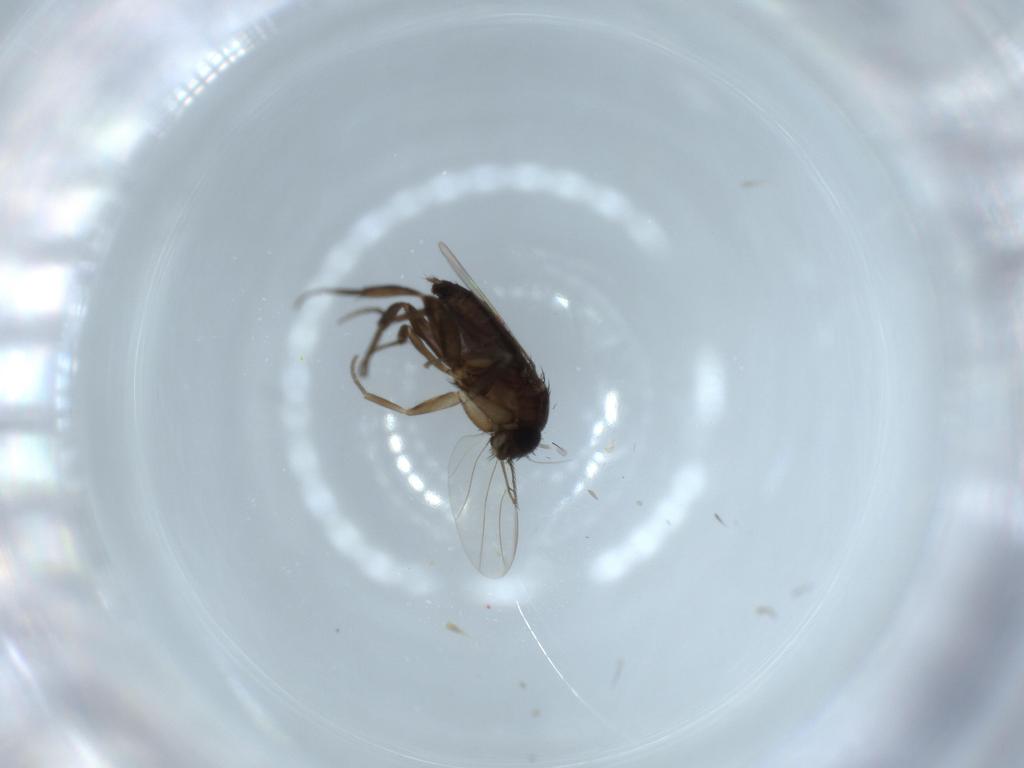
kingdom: Animalia
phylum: Arthropoda
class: Insecta
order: Diptera
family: Phoridae
